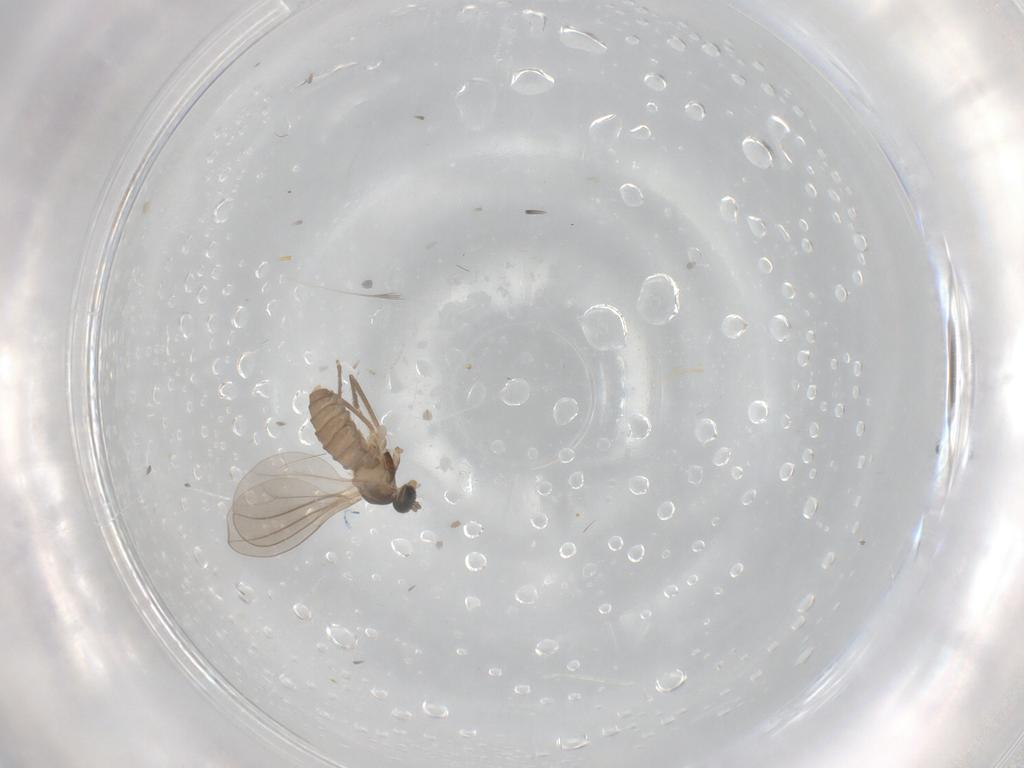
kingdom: Animalia
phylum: Arthropoda
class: Insecta
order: Diptera
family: Cecidomyiidae
